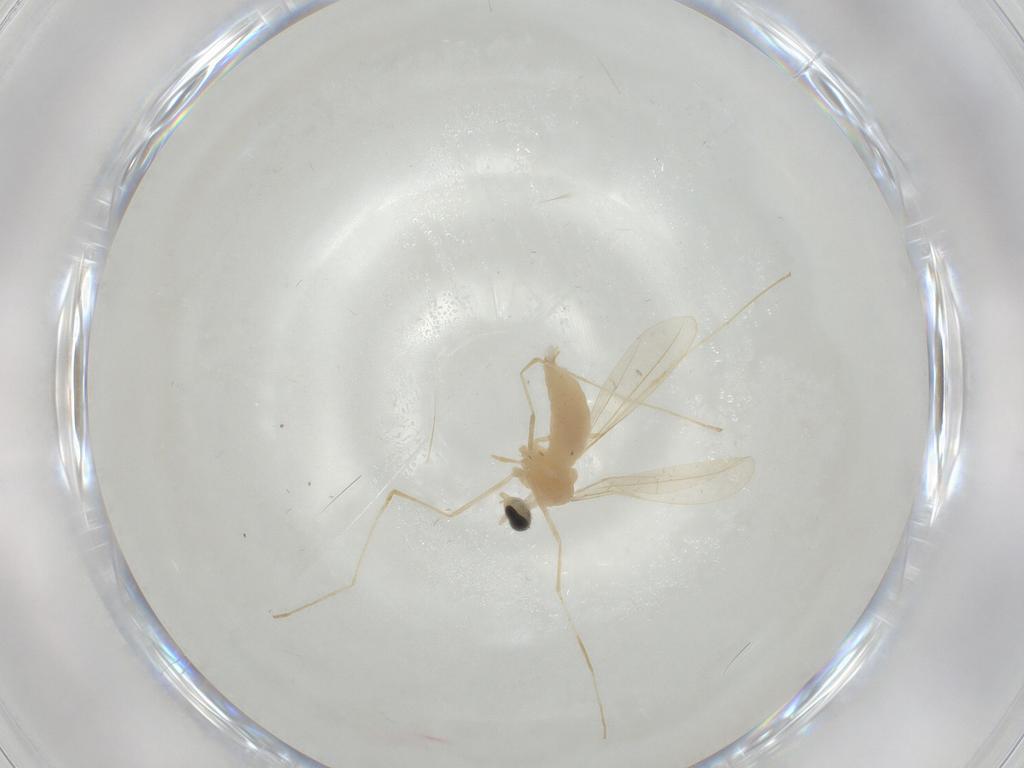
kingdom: Animalia
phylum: Arthropoda
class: Insecta
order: Diptera
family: Cecidomyiidae
